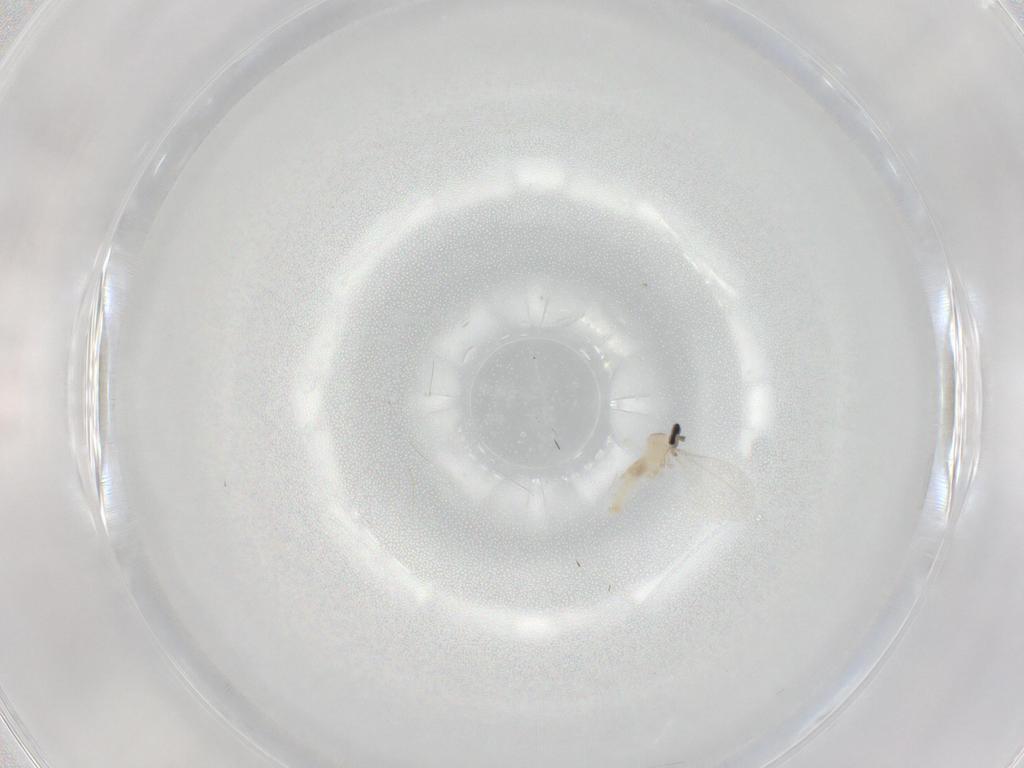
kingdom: Animalia
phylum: Arthropoda
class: Insecta
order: Diptera
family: Cecidomyiidae
